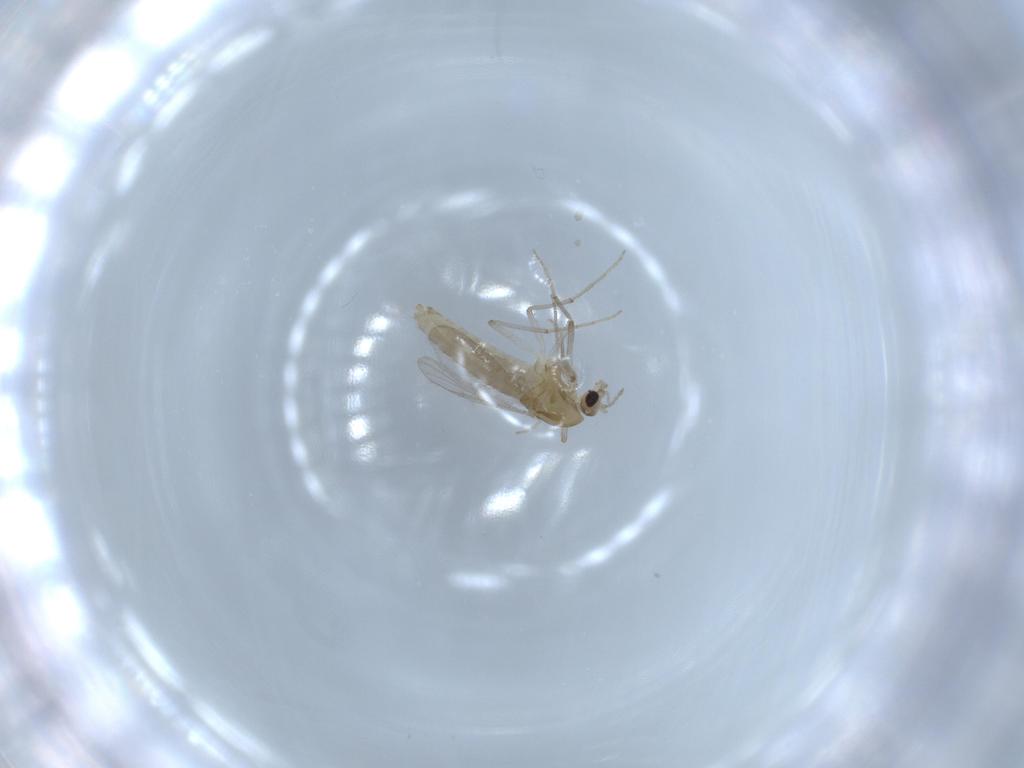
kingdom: Animalia
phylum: Arthropoda
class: Insecta
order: Diptera
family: Chironomidae
